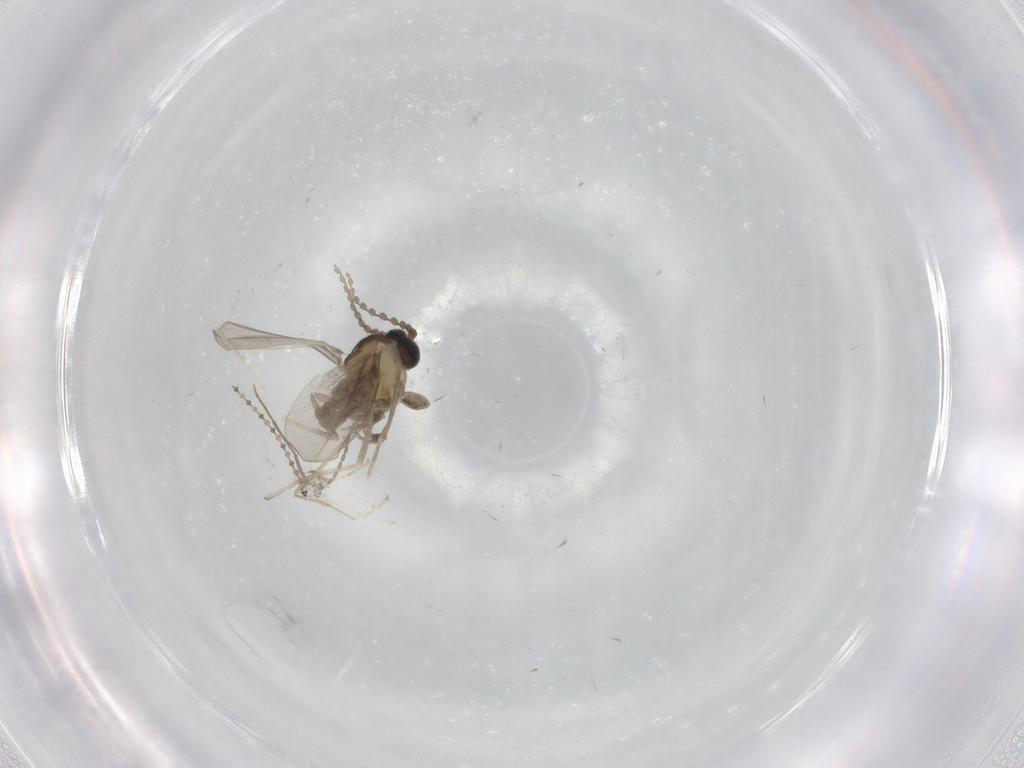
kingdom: Animalia
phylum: Arthropoda
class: Insecta
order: Diptera
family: Cecidomyiidae
